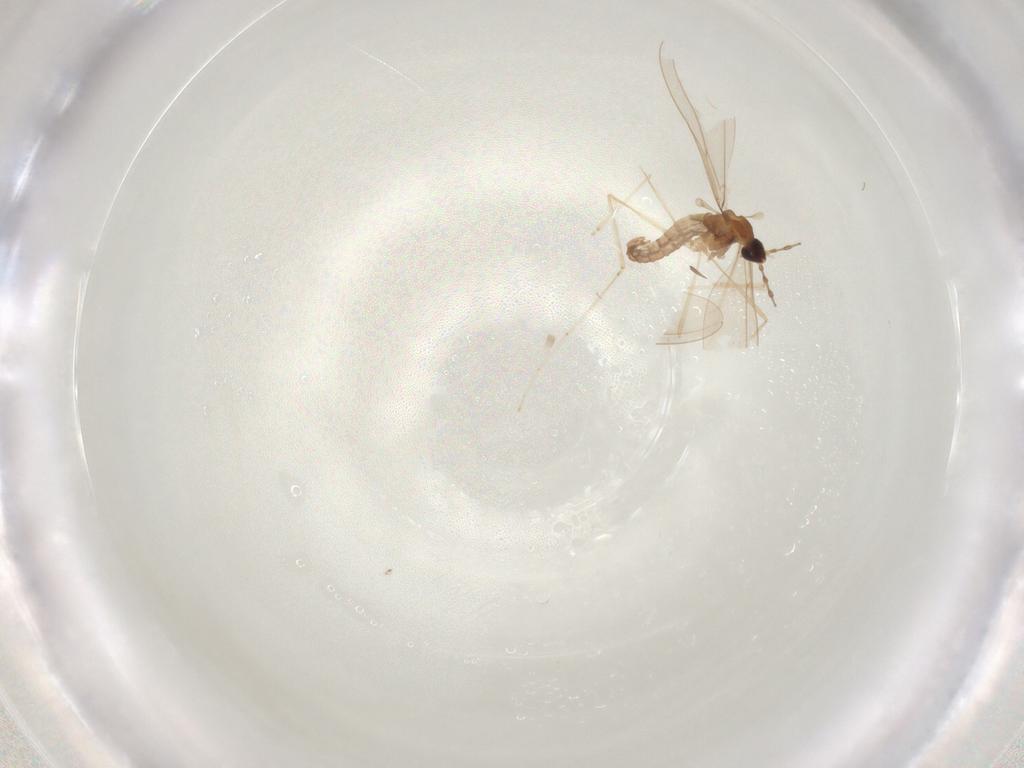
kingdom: Animalia
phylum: Arthropoda
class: Insecta
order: Diptera
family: Cecidomyiidae
